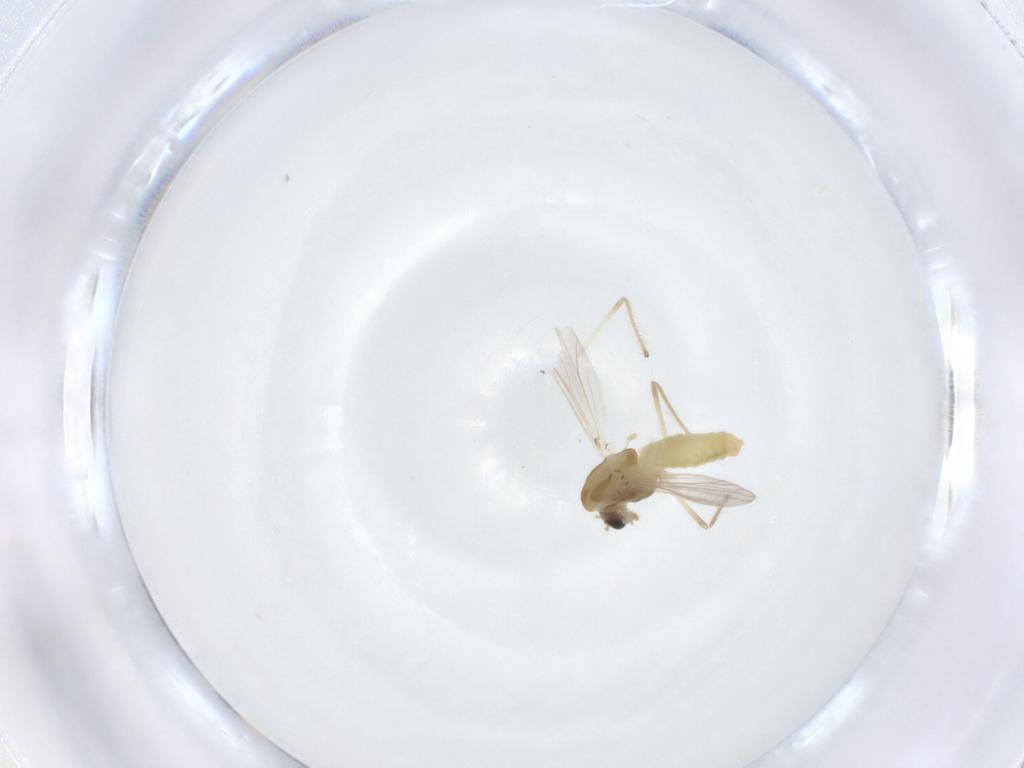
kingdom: Animalia
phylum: Arthropoda
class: Insecta
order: Diptera
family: Chironomidae
